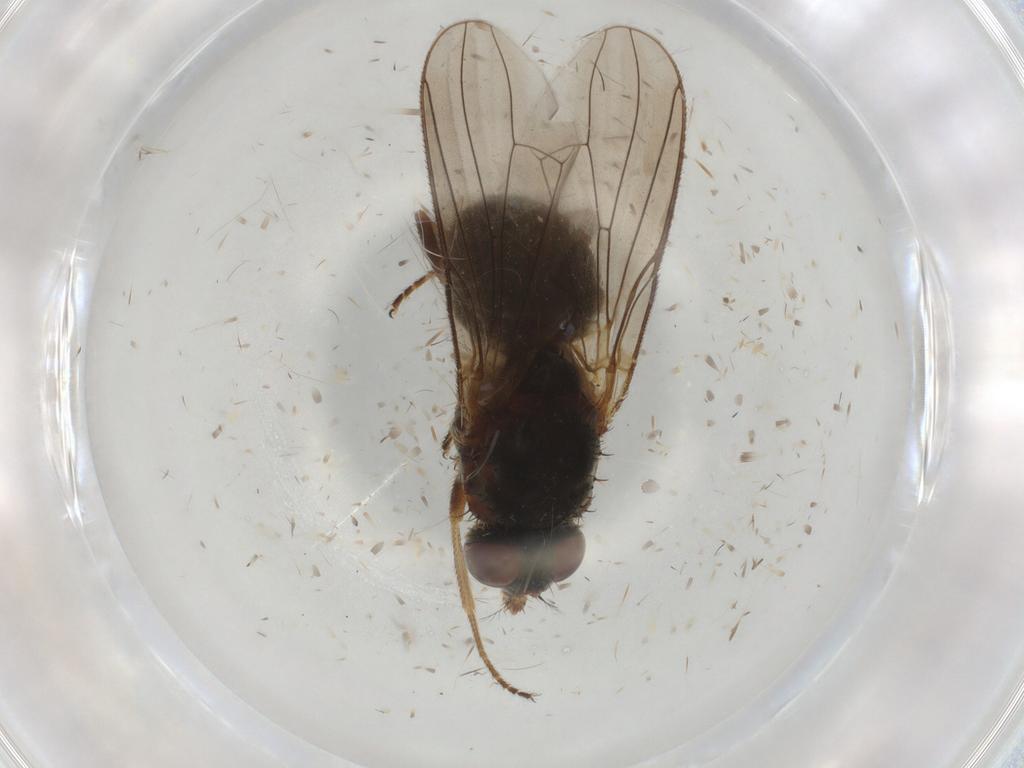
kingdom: Animalia
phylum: Arthropoda
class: Insecta
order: Diptera
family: Muscidae
